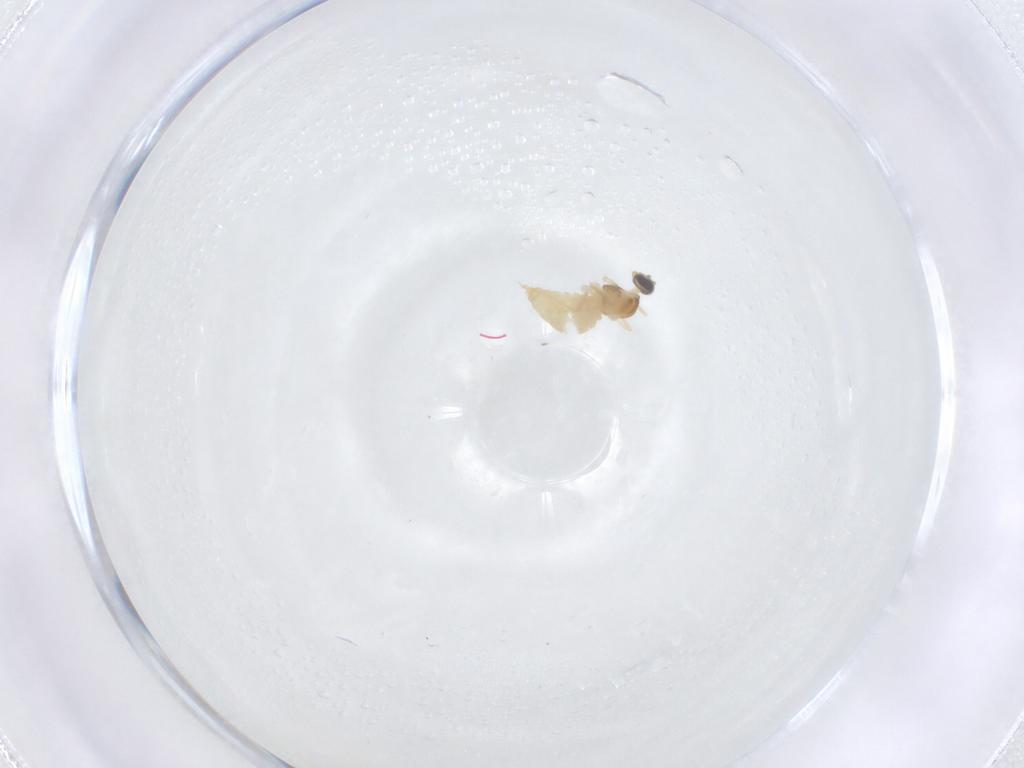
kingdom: Animalia
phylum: Arthropoda
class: Insecta
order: Diptera
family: Cecidomyiidae
